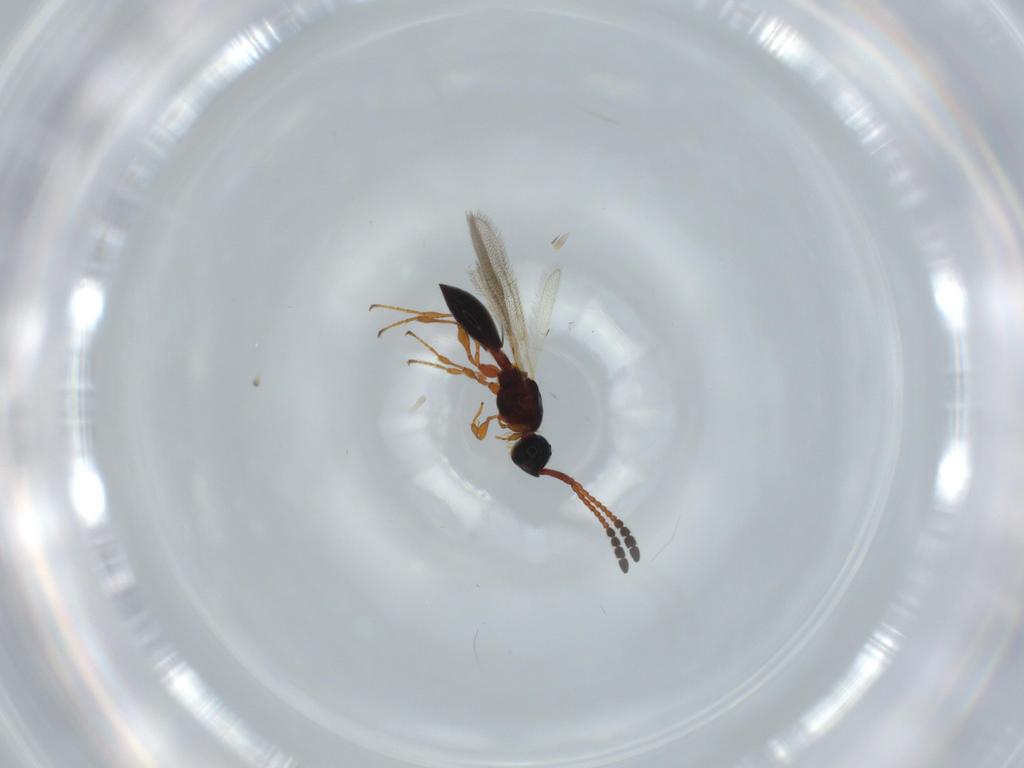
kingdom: Animalia
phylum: Arthropoda
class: Insecta
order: Hymenoptera
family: Diapriidae
